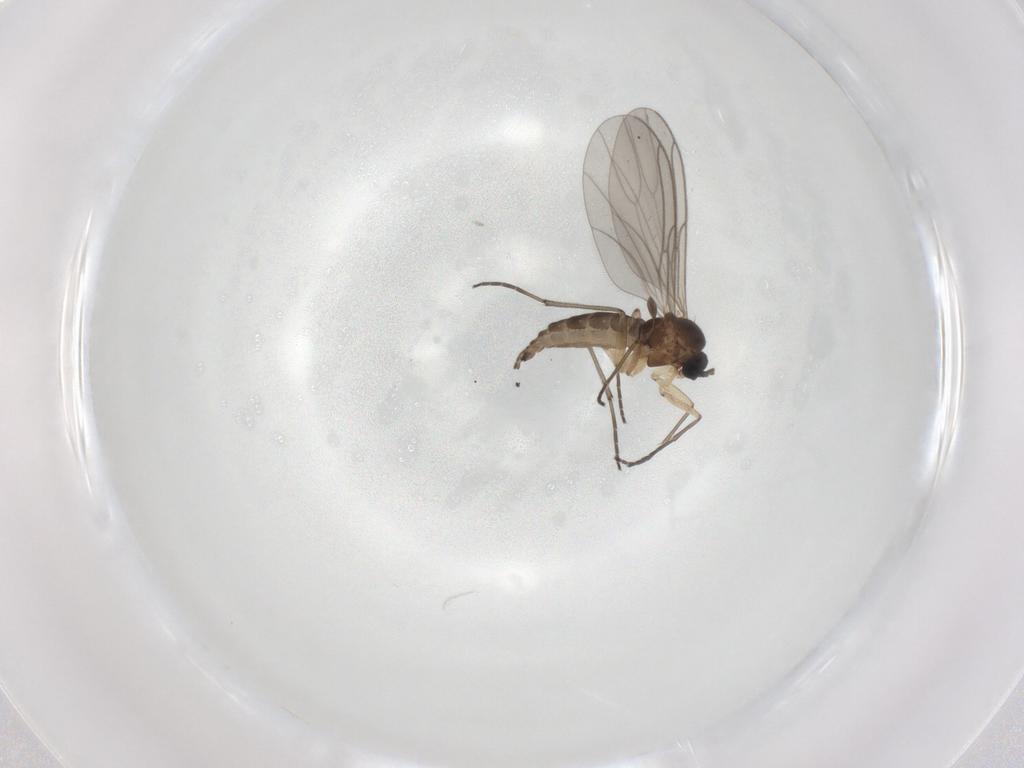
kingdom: Animalia
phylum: Arthropoda
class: Insecta
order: Diptera
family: Sciaridae
